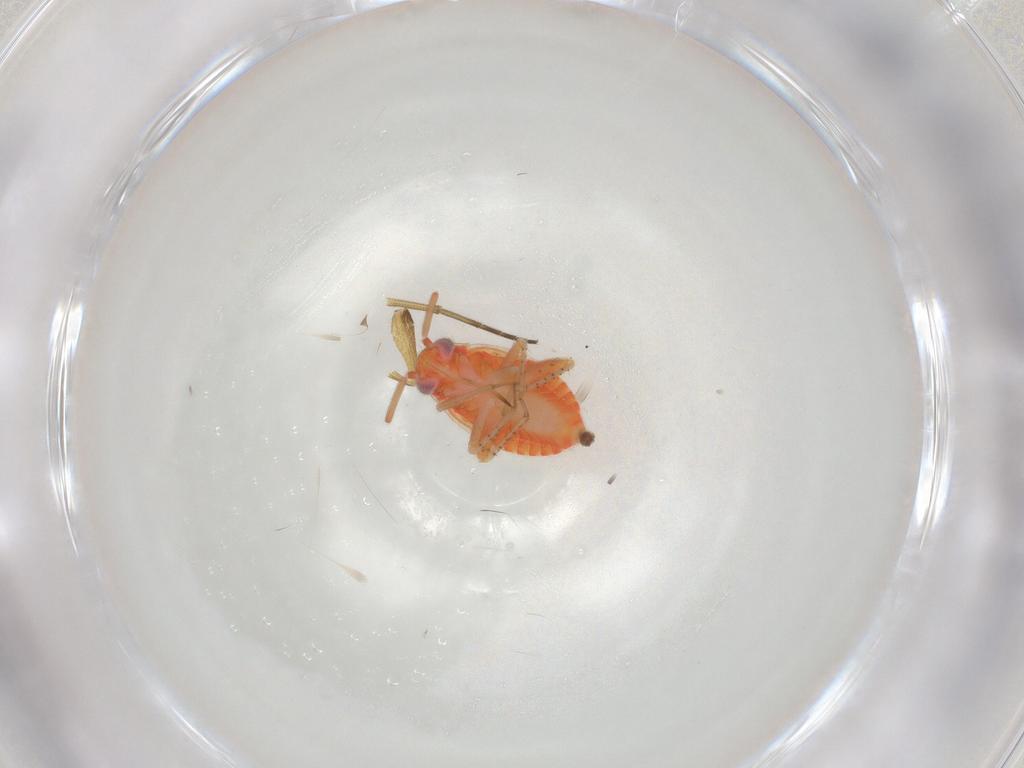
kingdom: Animalia
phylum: Arthropoda
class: Insecta
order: Hemiptera
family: Miridae
